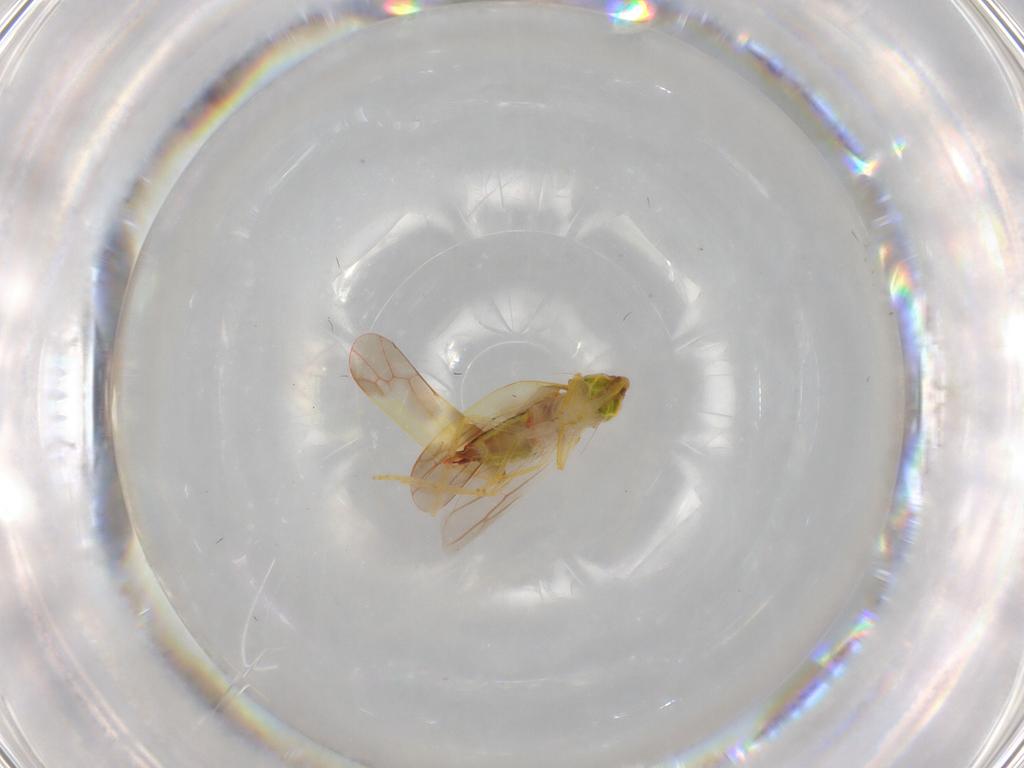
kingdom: Animalia
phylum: Arthropoda
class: Insecta
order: Hemiptera
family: Cicadellidae
